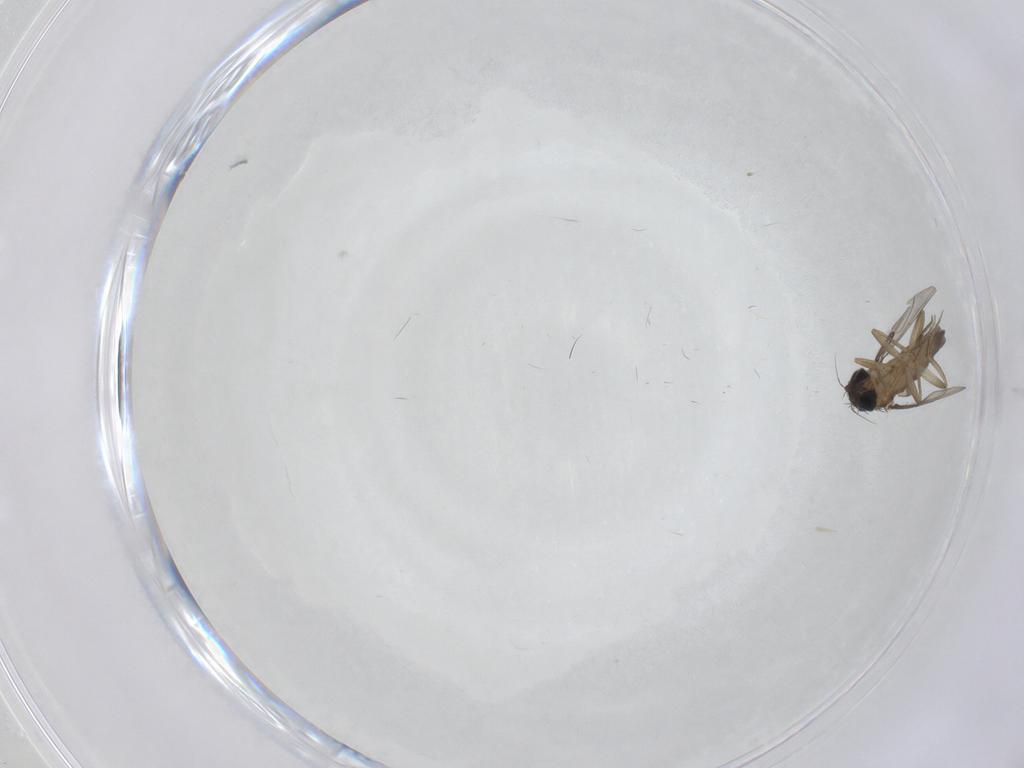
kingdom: Animalia
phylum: Arthropoda
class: Insecta
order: Diptera
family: Phoridae
